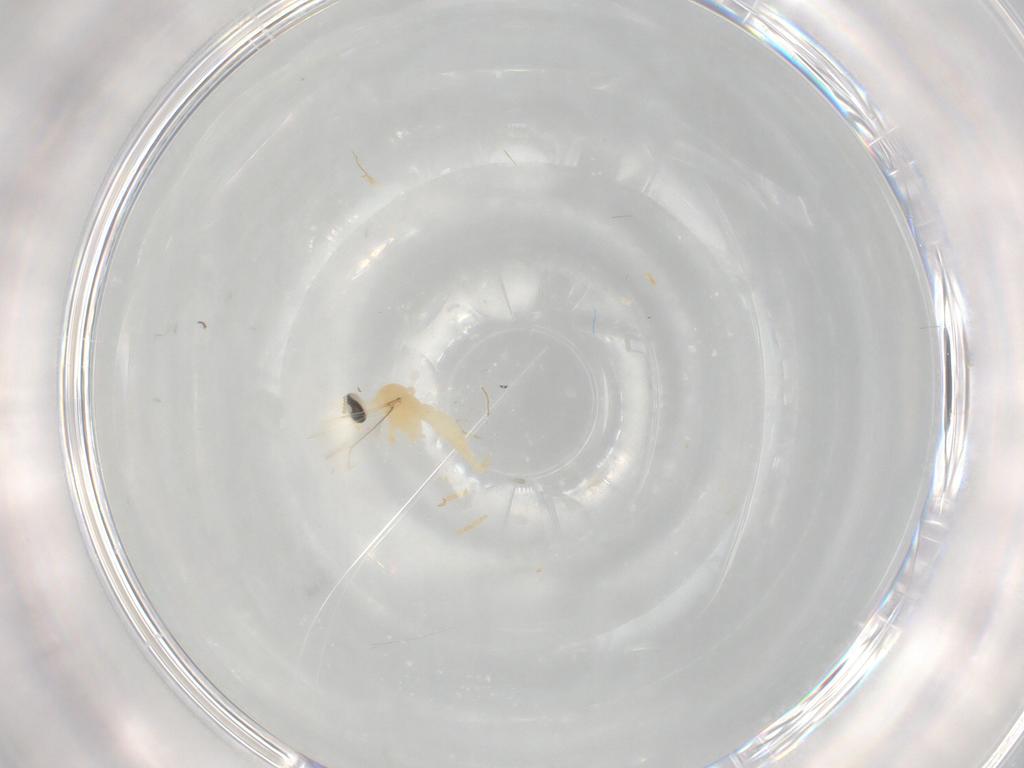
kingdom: Animalia
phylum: Arthropoda
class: Insecta
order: Diptera
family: Cecidomyiidae
